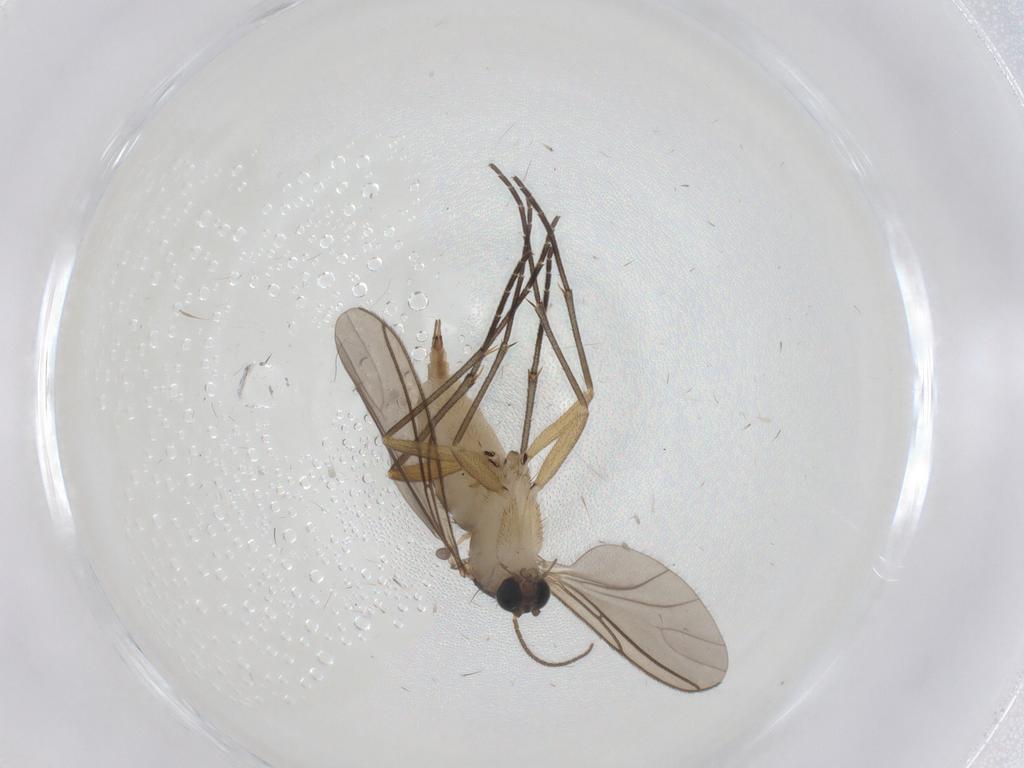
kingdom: Animalia
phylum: Arthropoda
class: Insecta
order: Diptera
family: Sciaridae
